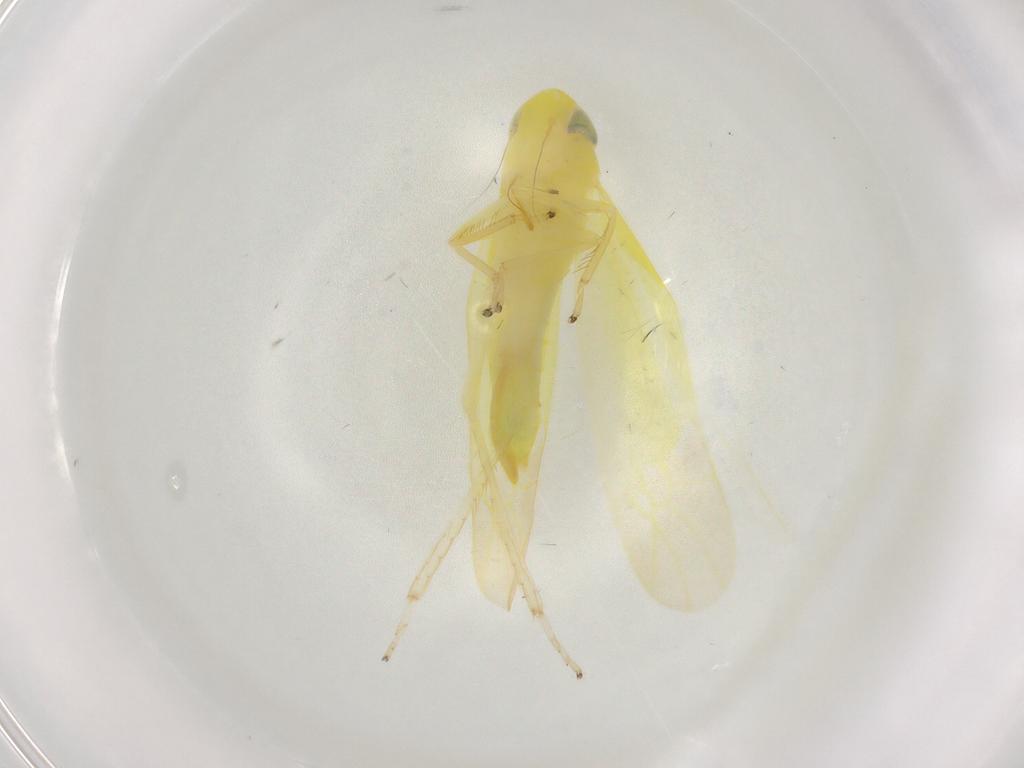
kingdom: Animalia
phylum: Arthropoda
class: Insecta
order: Hemiptera
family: Cicadellidae
